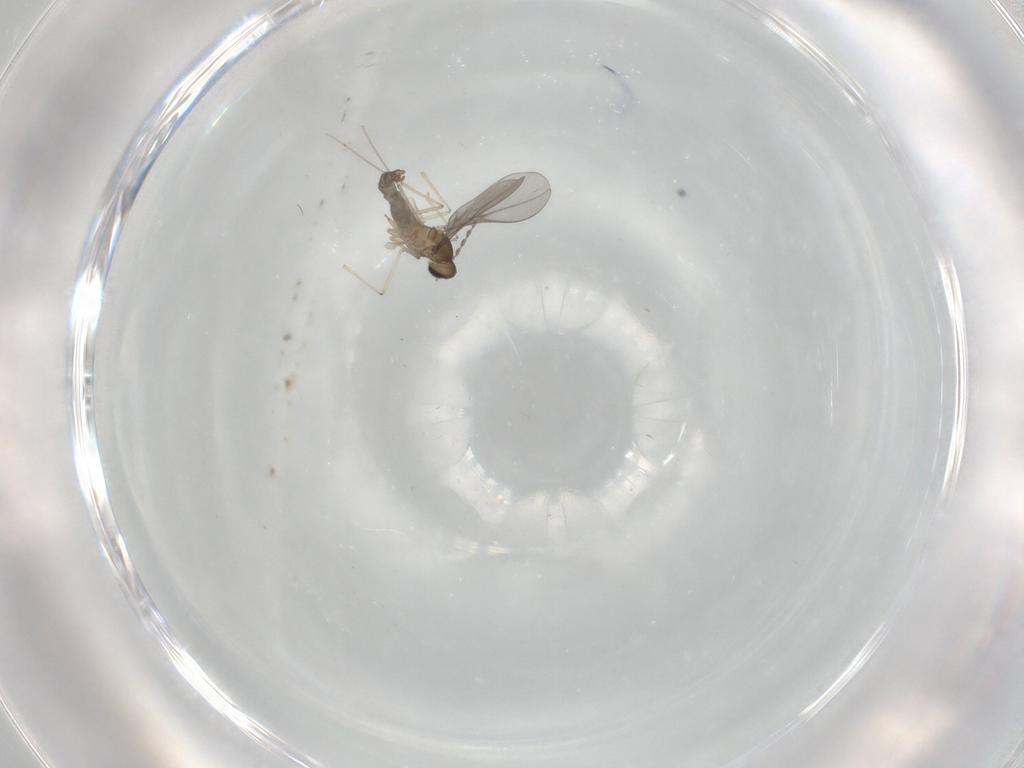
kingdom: Animalia
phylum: Arthropoda
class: Insecta
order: Diptera
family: Cecidomyiidae
